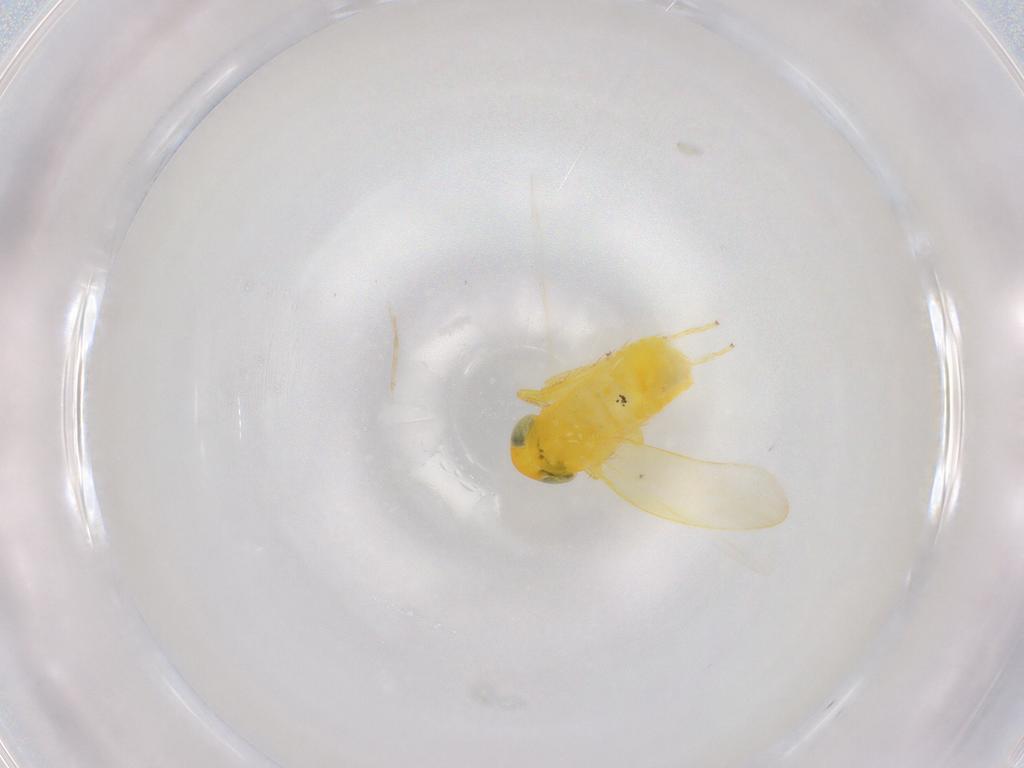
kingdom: Animalia
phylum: Arthropoda
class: Insecta
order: Hemiptera
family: Cicadellidae
